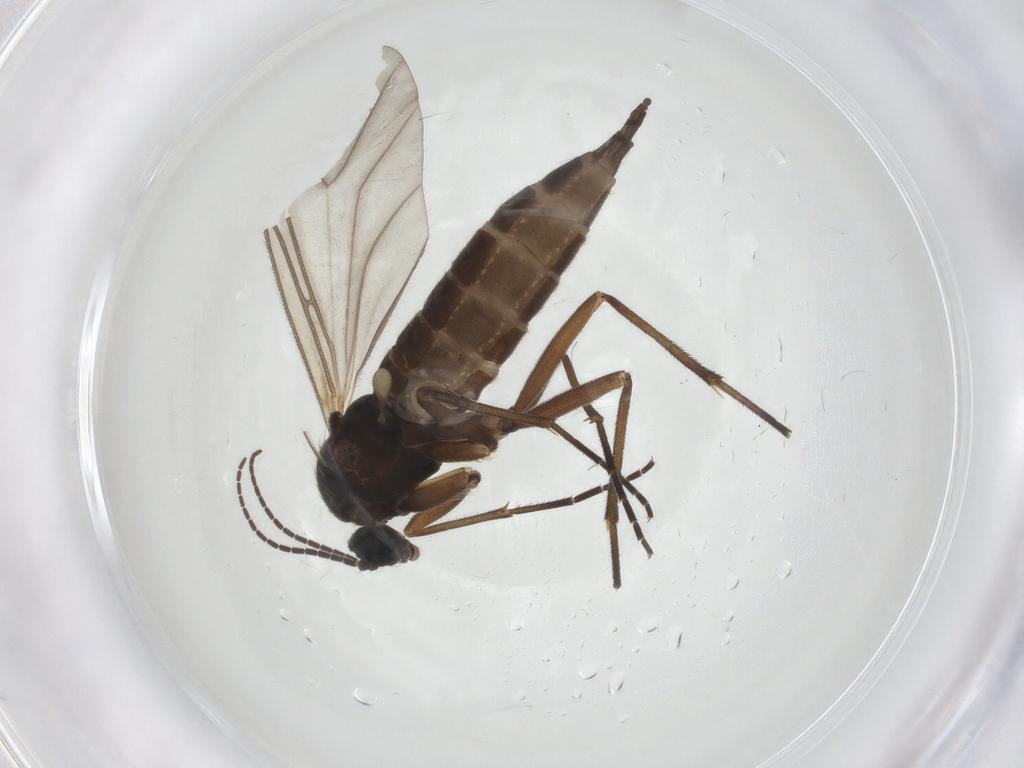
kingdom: Animalia
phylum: Arthropoda
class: Insecta
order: Diptera
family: Sciaridae
